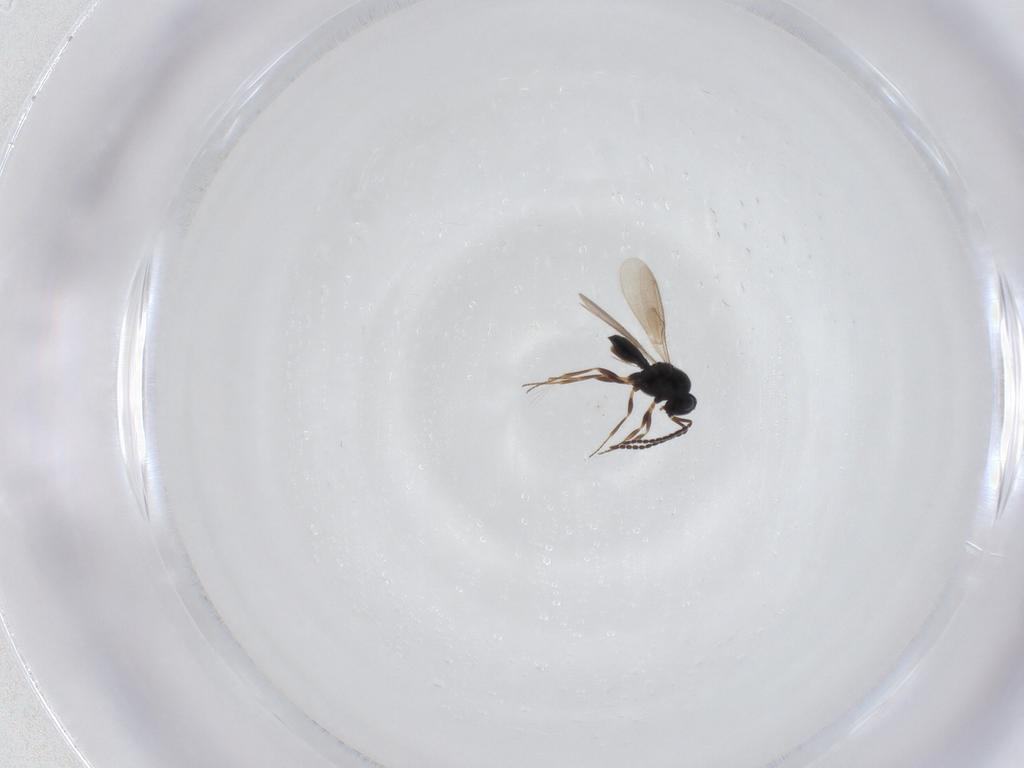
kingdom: Animalia
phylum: Arthropoda
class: Insecta
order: Hymenoptera
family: Scelionidae
